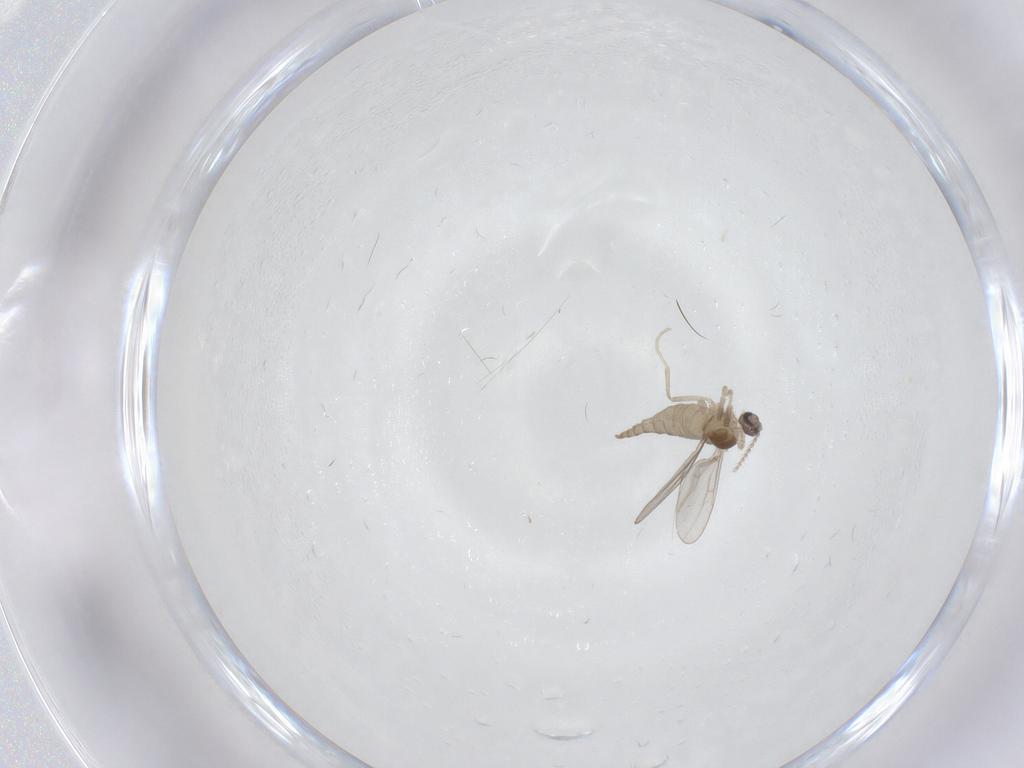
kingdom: Animalia
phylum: Arthropoda
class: Insecta
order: Diptera
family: Cecidomyiidae
